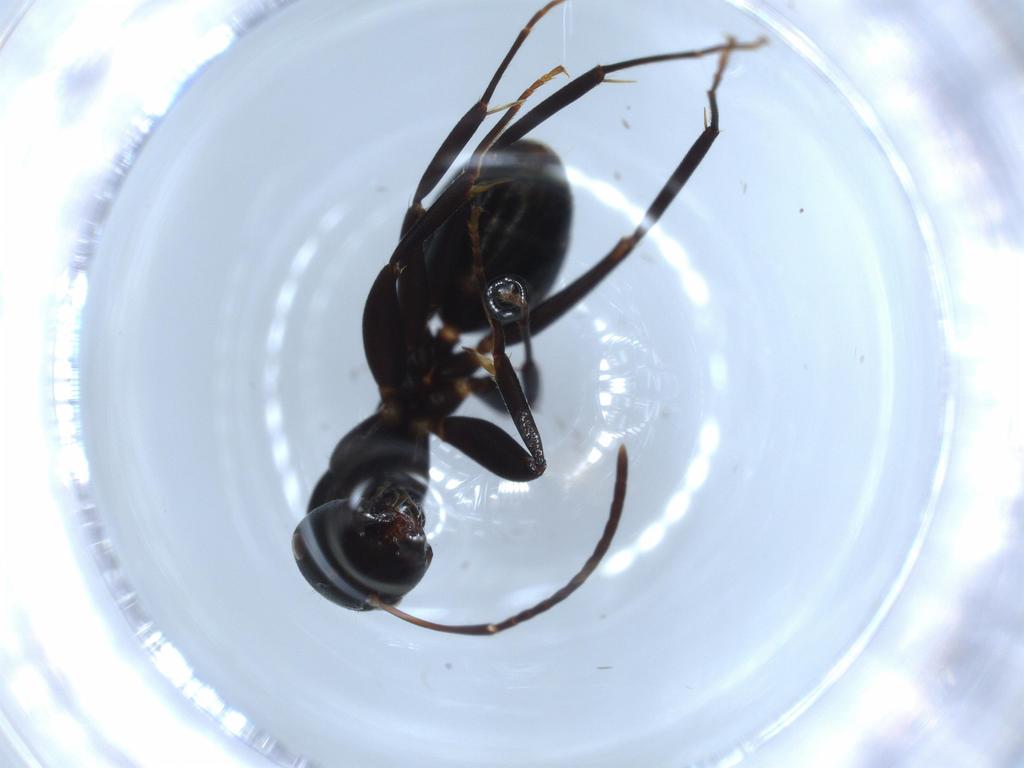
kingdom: Animalia
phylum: Arthropoda
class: Insecta
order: Hymenoptera
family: Formicidae
